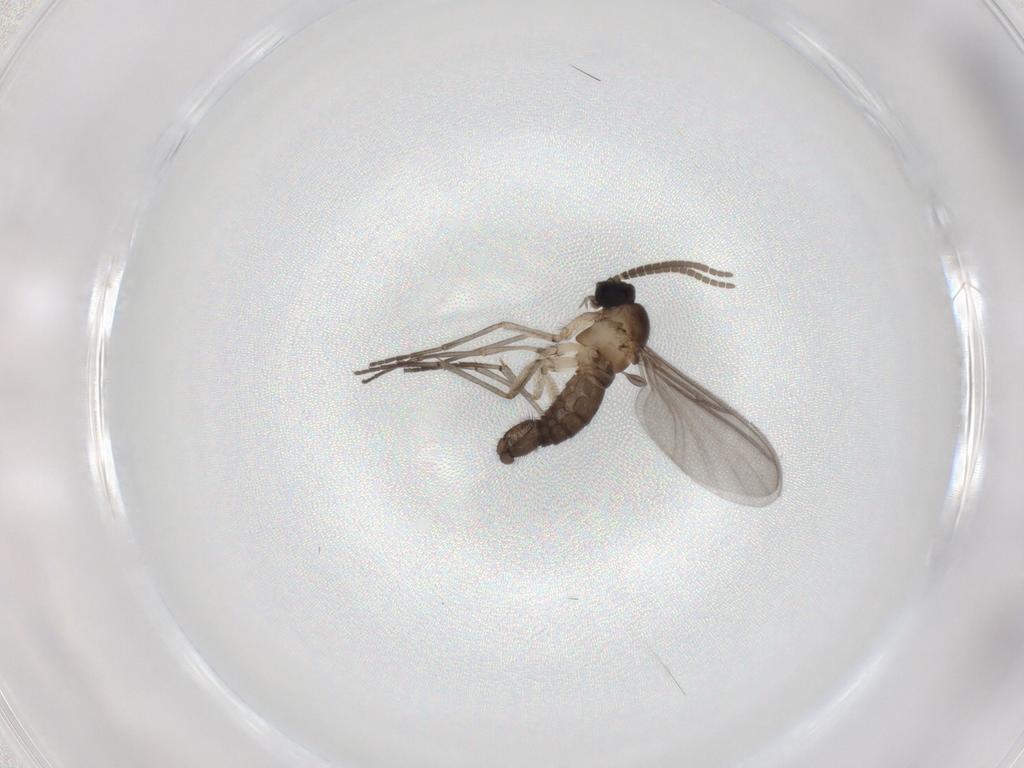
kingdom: Animalia
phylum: Arthropoda
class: Insecta
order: Diptera
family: Sciaridae
